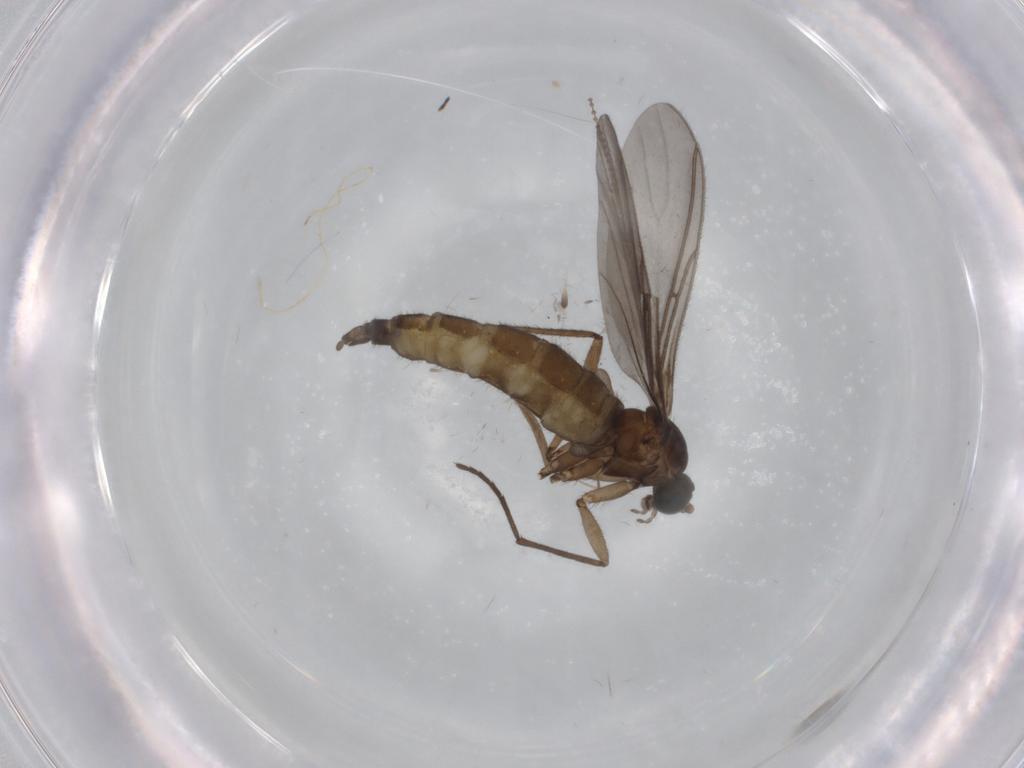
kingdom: Animalia
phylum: Arthropoda
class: Insecta
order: Diptera
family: Sciaridae
